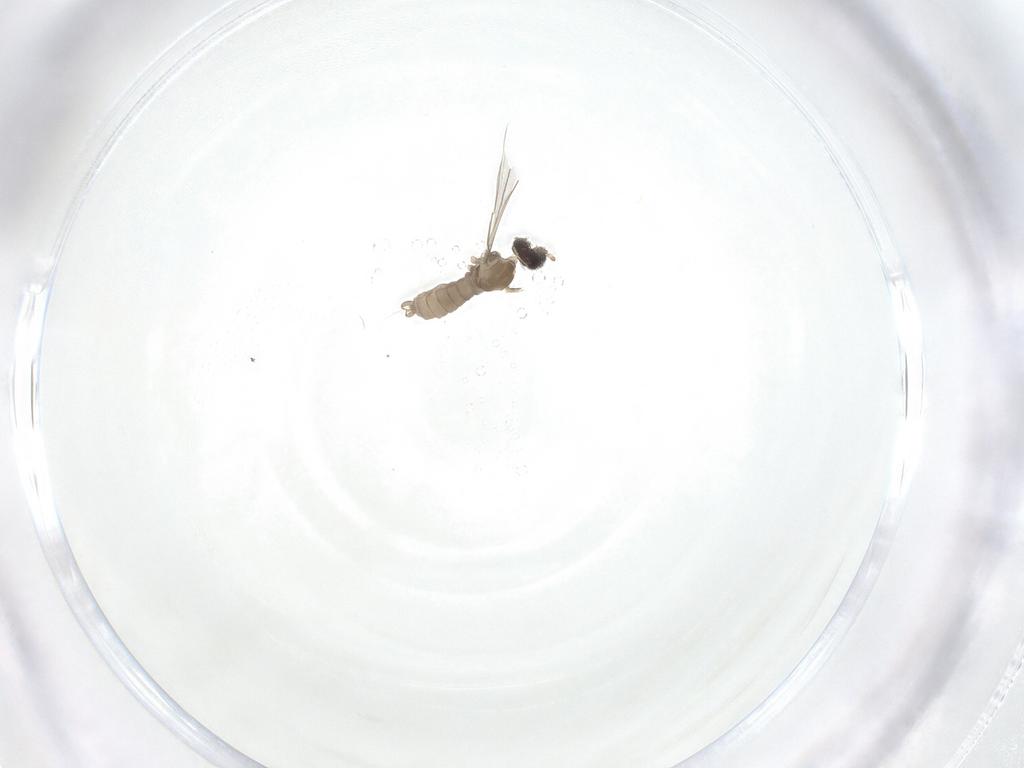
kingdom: Animalia
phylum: Arthropoda
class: Insecta
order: Diptera
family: Cecidomyiidae
